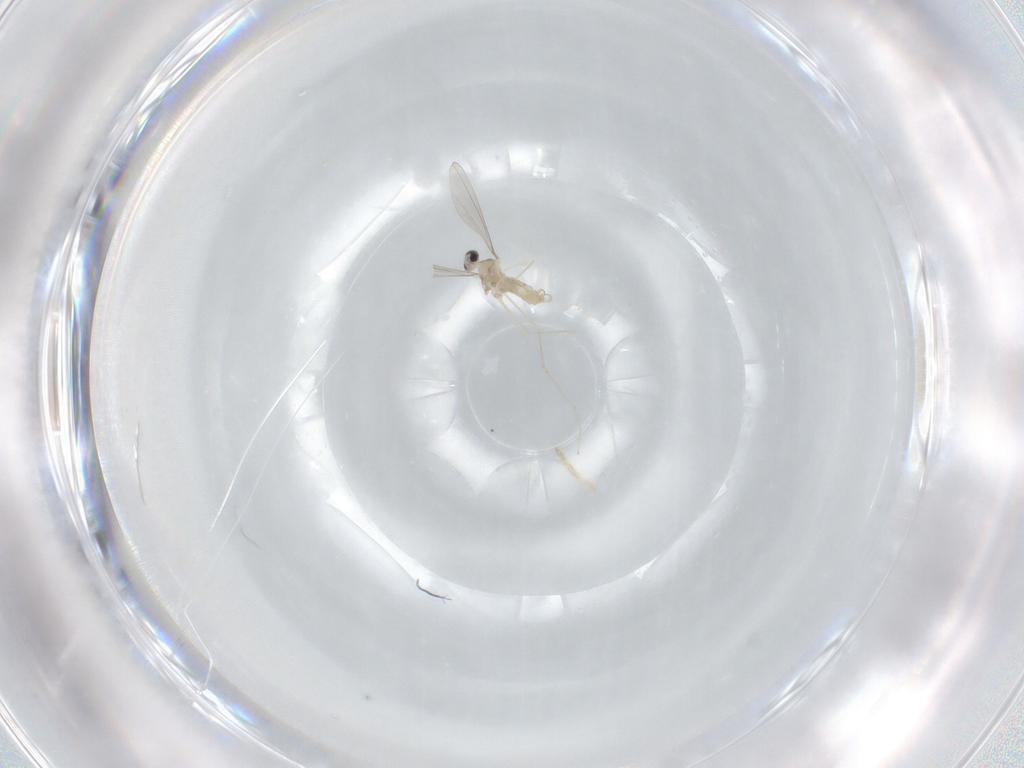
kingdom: Animalia
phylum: Arthropoda
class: Insecta
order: Diptera
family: Cecidomyiidae
